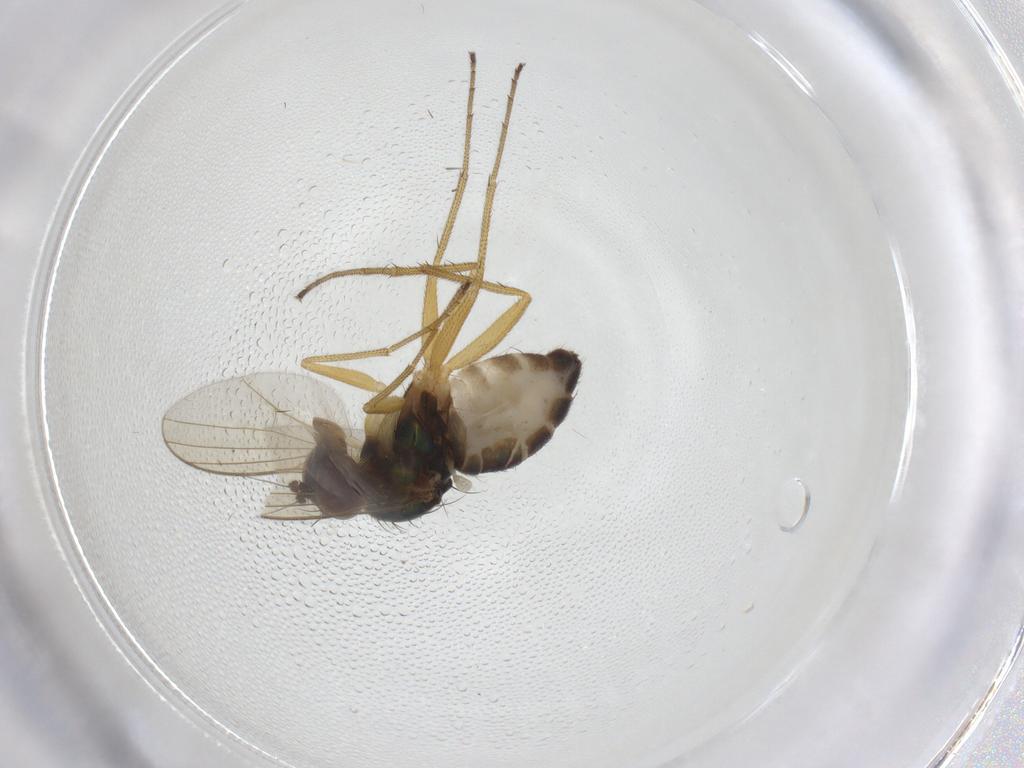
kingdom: Animalia
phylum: Arthropoda
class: Insecta
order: Diptera
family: Dolichopodidae
